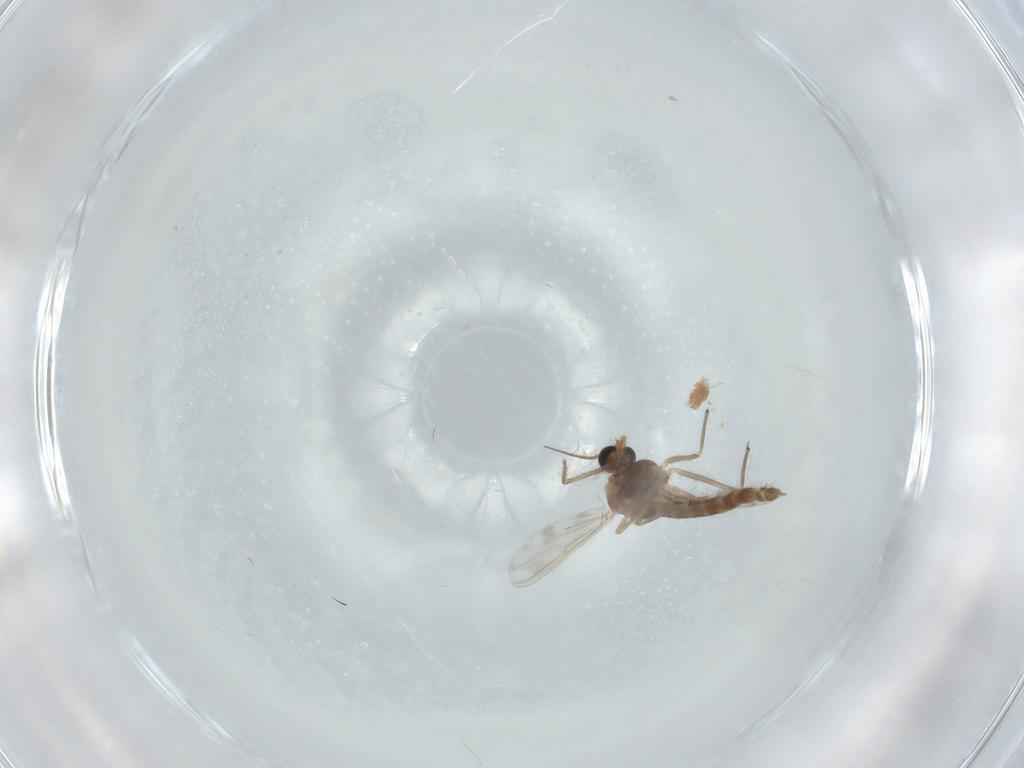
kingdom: Animalia
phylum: Arthropoda
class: Insecta
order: Diptera
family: Chironomidae
